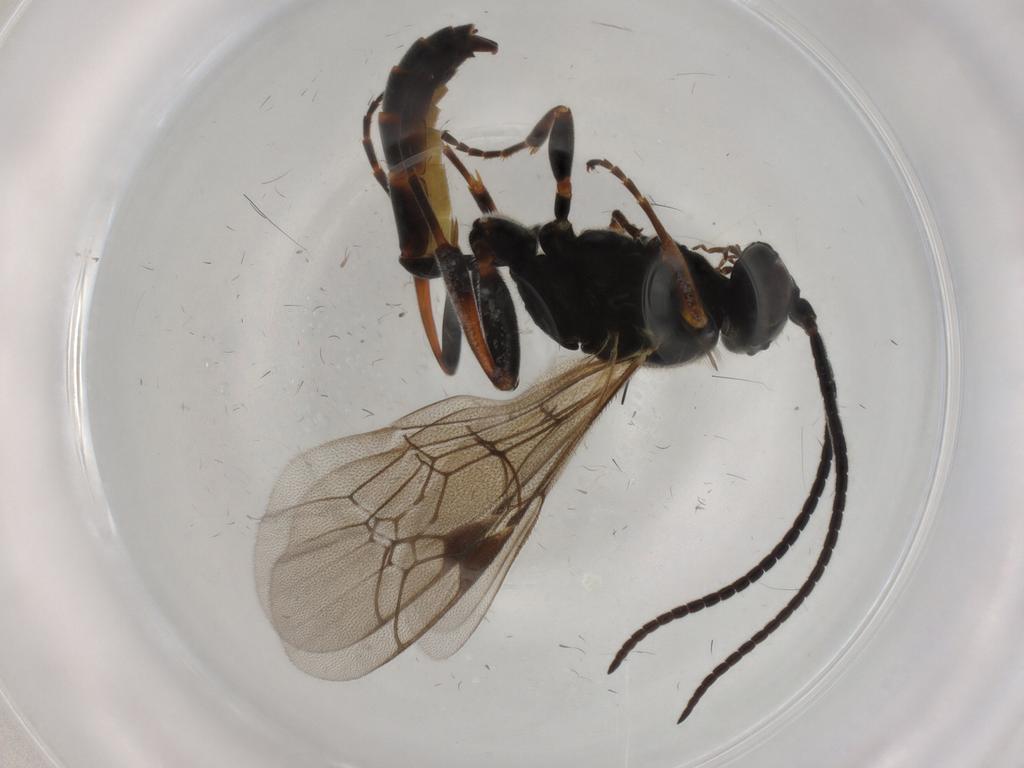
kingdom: Animalia
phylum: Arthropoda
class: Insecta
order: Hymenoptera
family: Ichneumonidae
